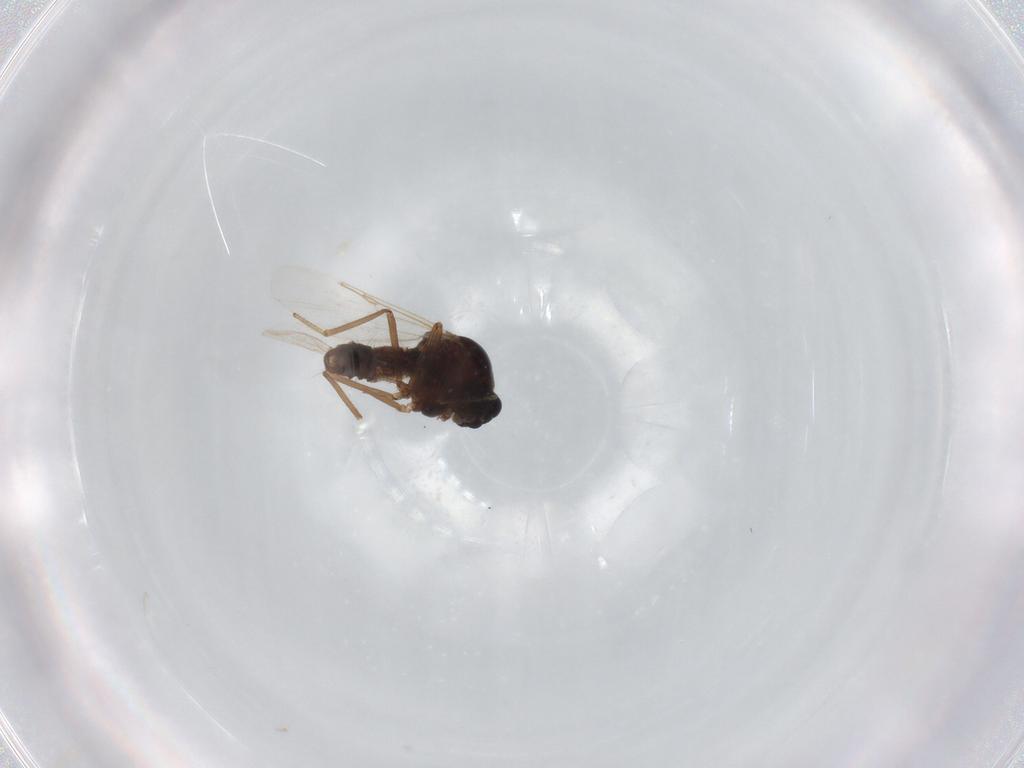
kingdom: Animalia
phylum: Arthropoda
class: Insecta
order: Diptera
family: Ceratopogonidae
